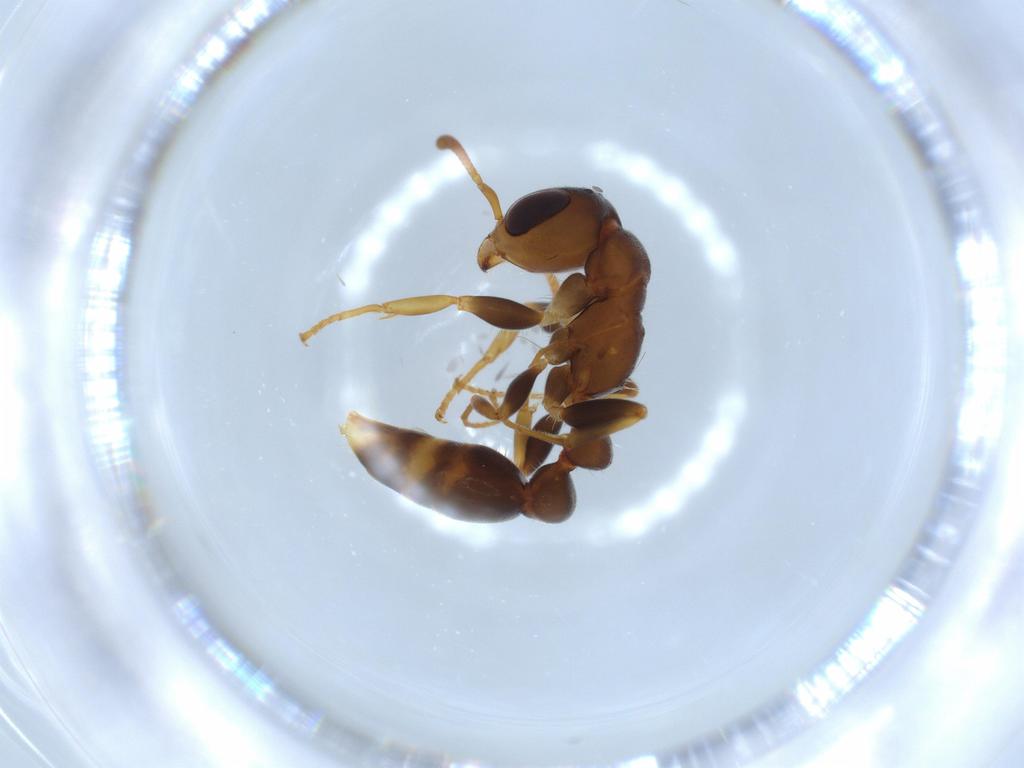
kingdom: Animalia
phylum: Arthropoda
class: Insecta
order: Hymenoptera
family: Formicidae
